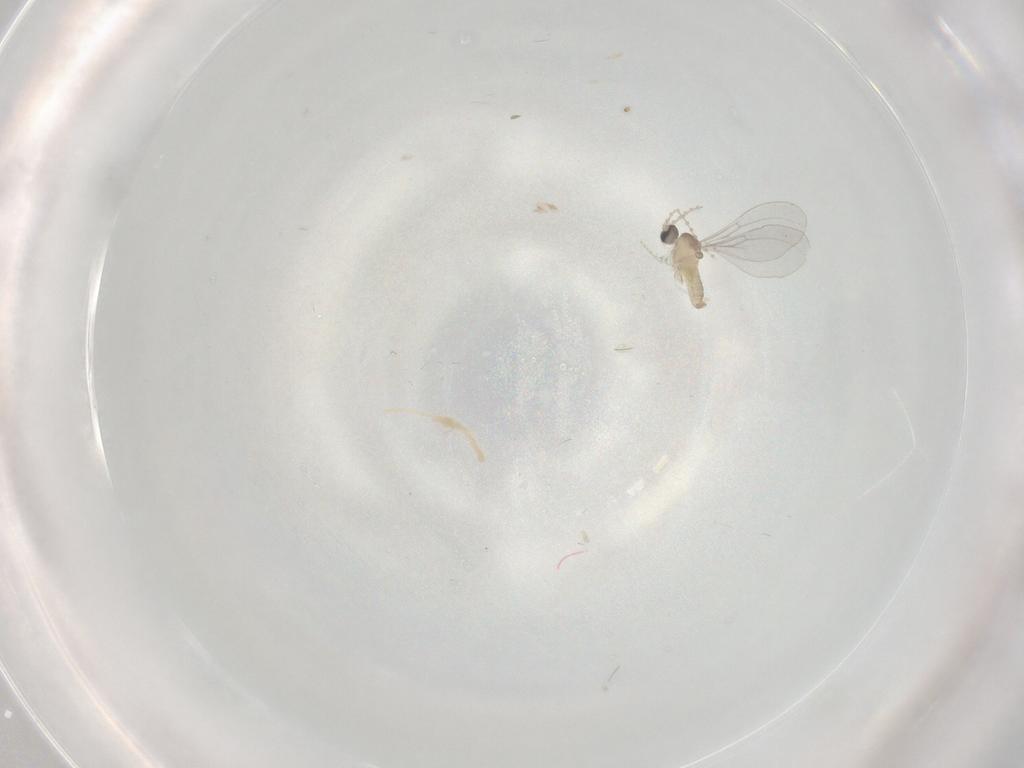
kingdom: Animalia
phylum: Arthropoda
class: Insecta
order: Diptera
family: Cecidomyiidae
